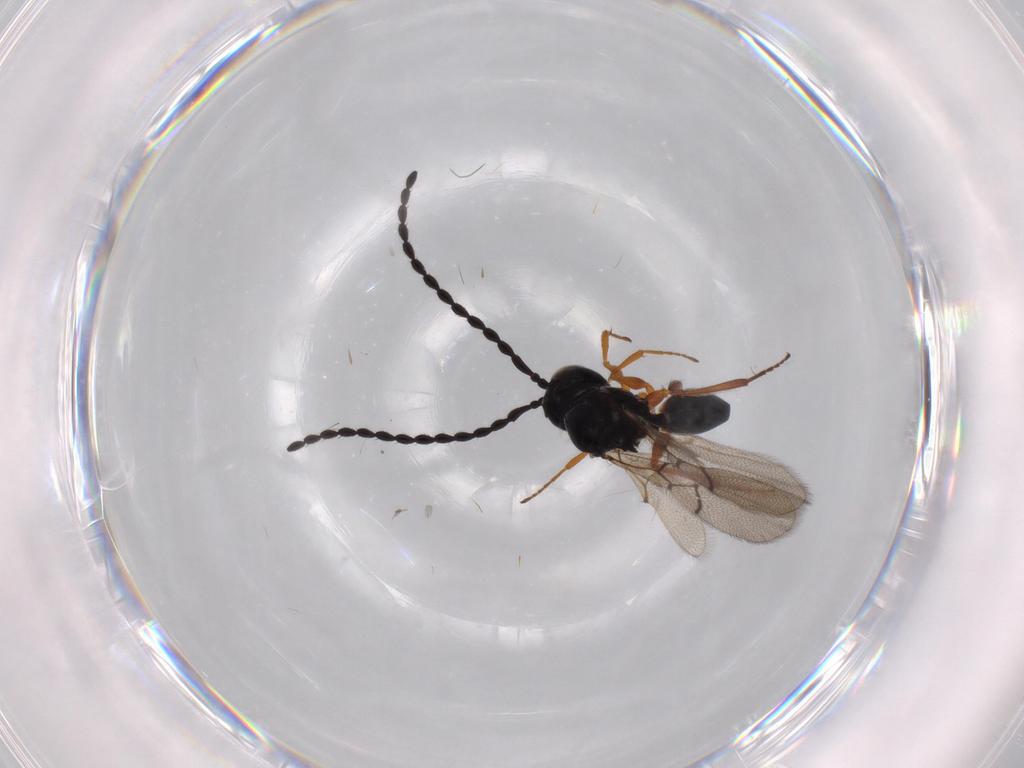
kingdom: Animalia
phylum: Arthropoda
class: Insecta
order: Hymenoptera
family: Figitidae
